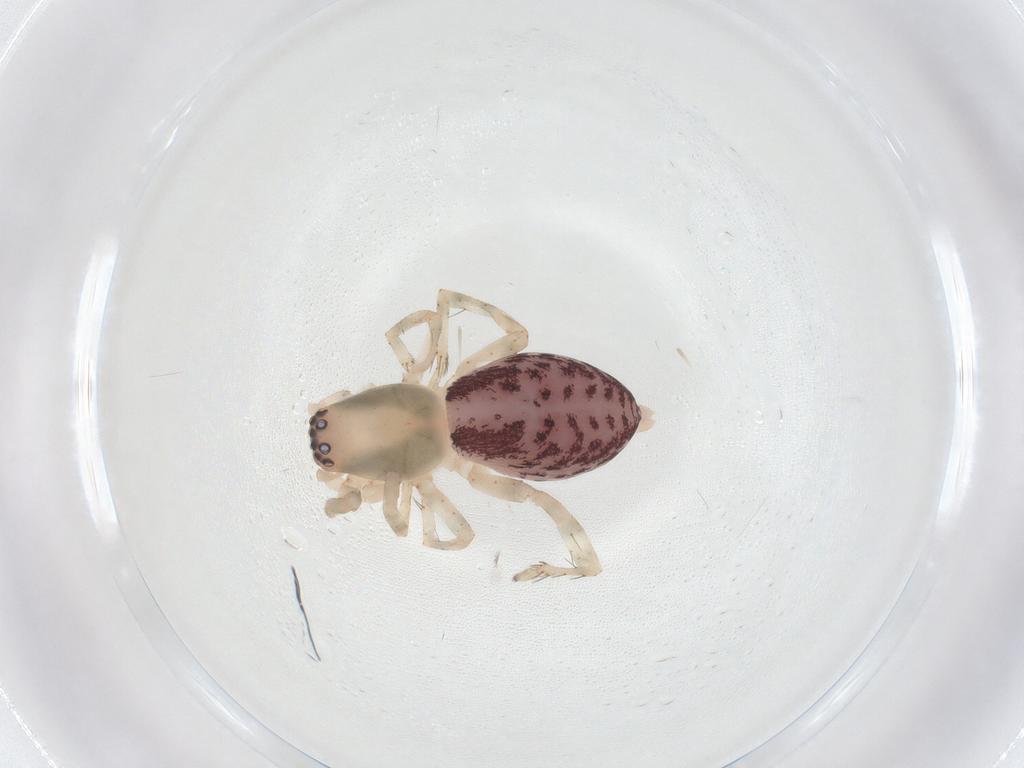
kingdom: Animalia
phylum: Arthropoda
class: Arachnida
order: Araneae
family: Clubionidae
